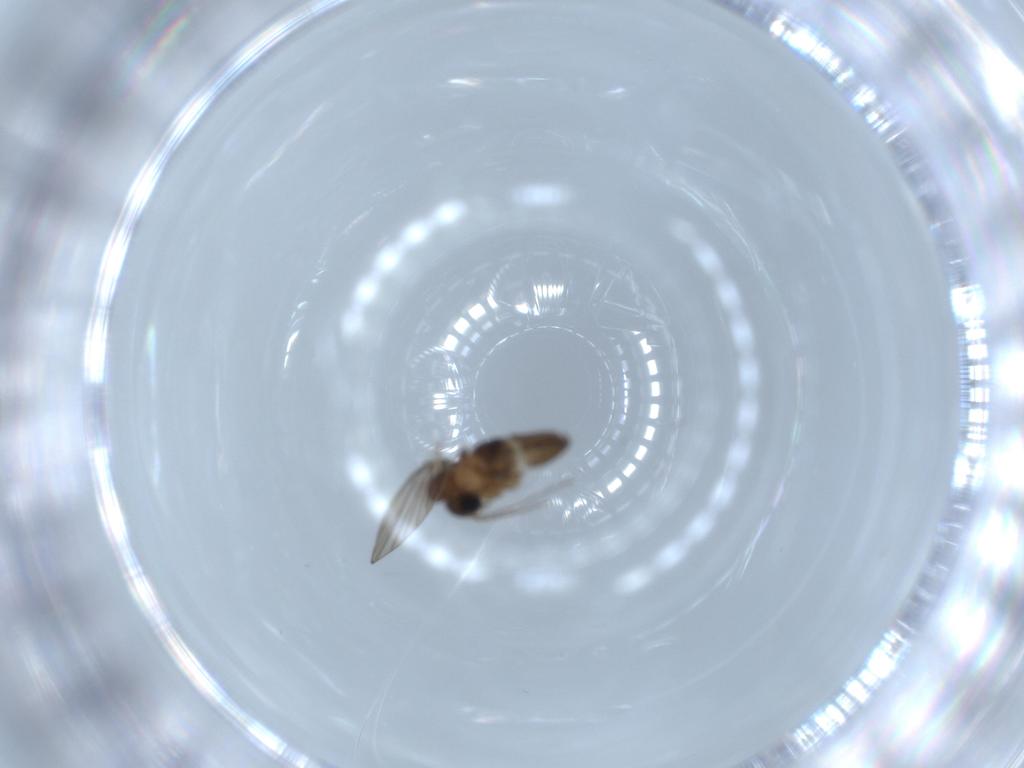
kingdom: Animalia
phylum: Arthropoda
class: Insecta
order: Diptera
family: Psychodidae
